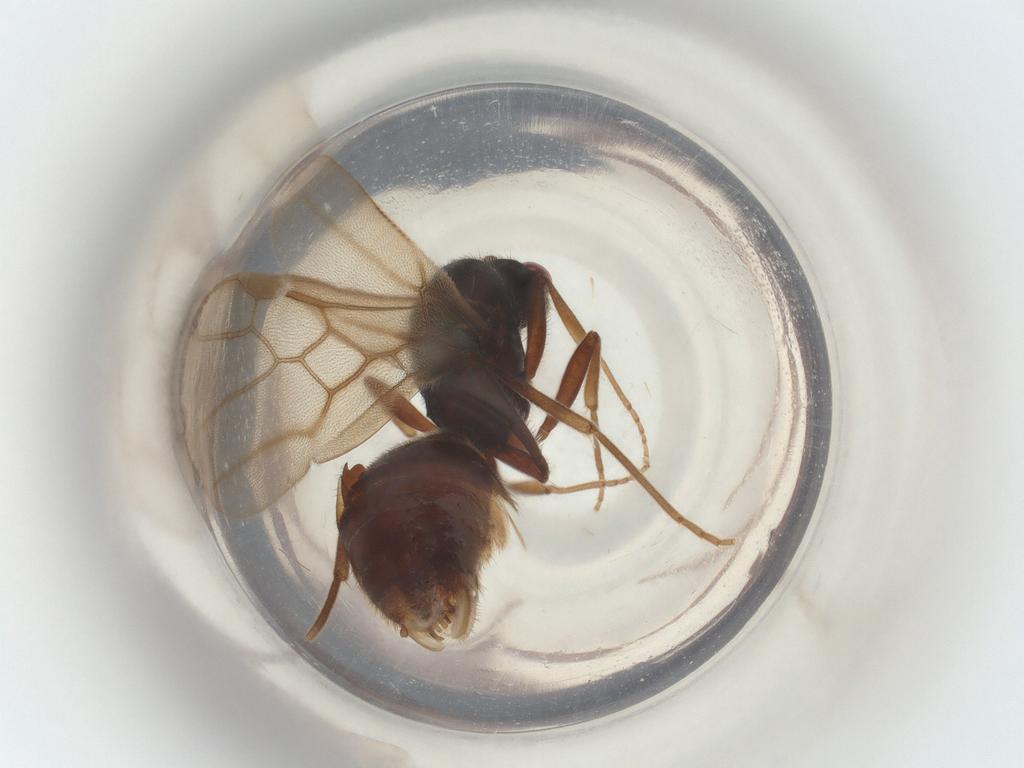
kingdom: Animalia
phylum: Arthropoda
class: Insecta
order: Hymenoptera
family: Formicidae
